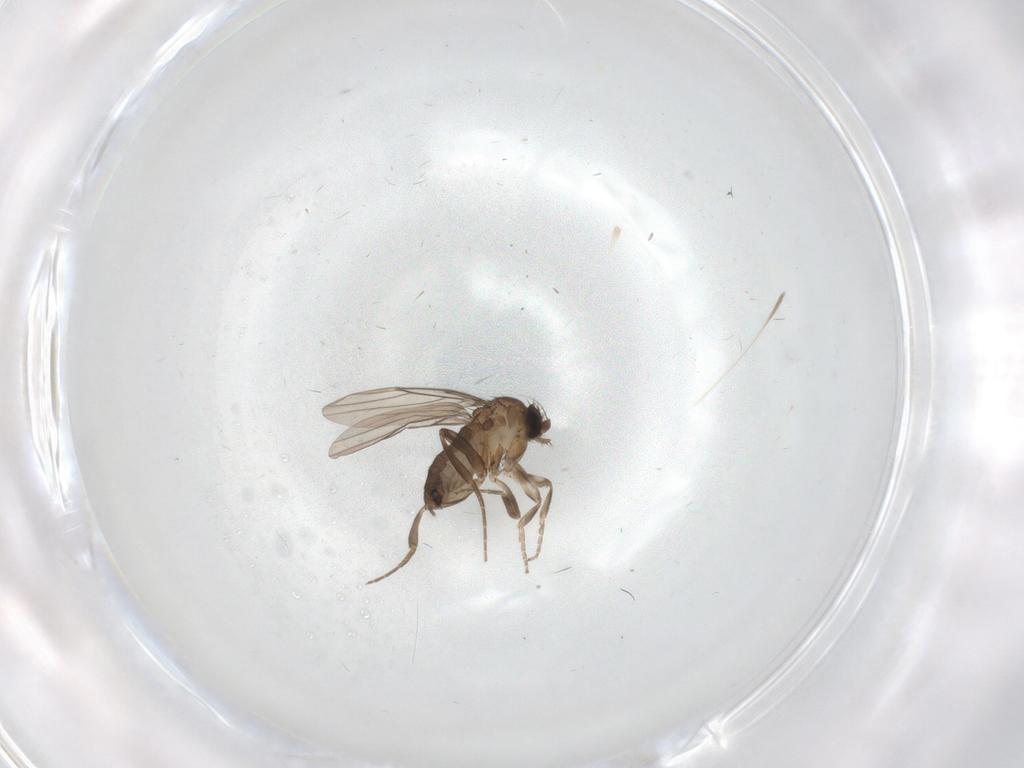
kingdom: Animalia
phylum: Arthropoda
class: Insecta
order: Diptera
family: Phoridae
